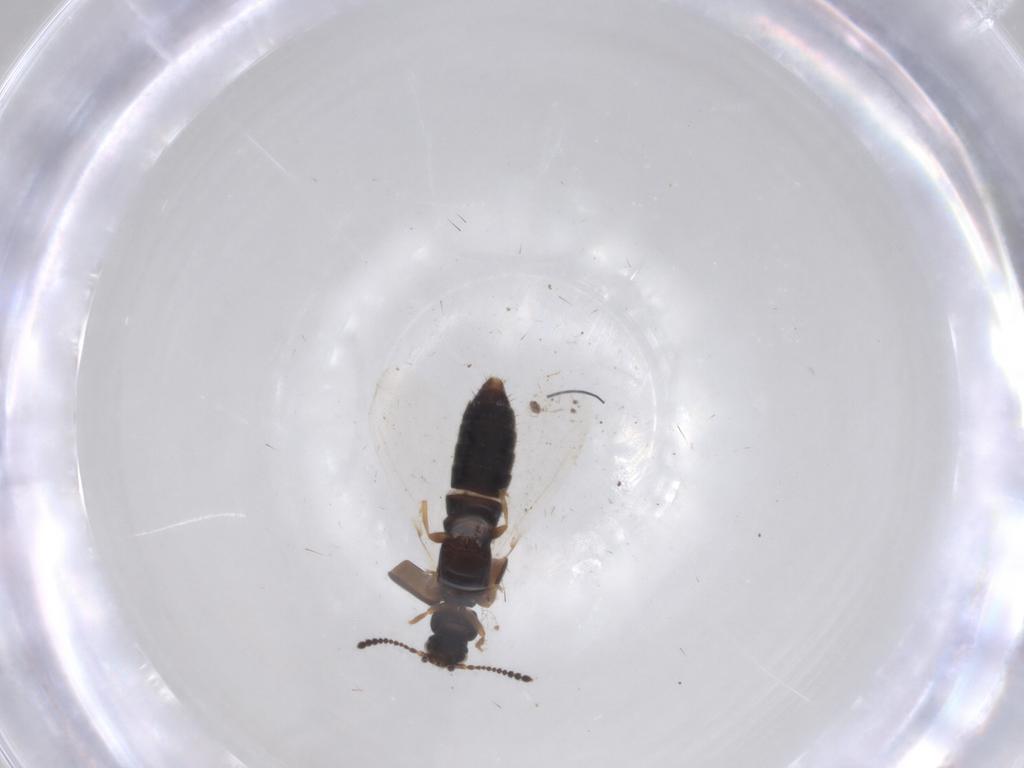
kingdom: Animalia
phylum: Arthropoda
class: Insecta
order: Coleoptera
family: Staphylinidae
